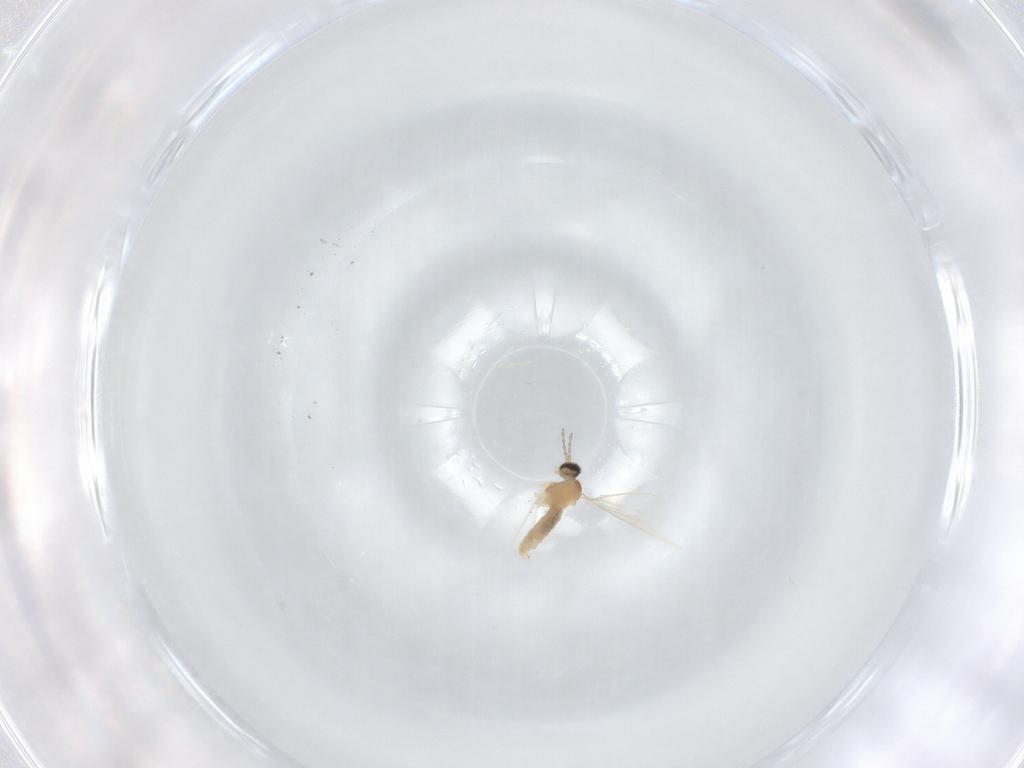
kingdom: Animalia
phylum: Arthropoda
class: Insecta
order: Diptera
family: Cecidomyiidae
